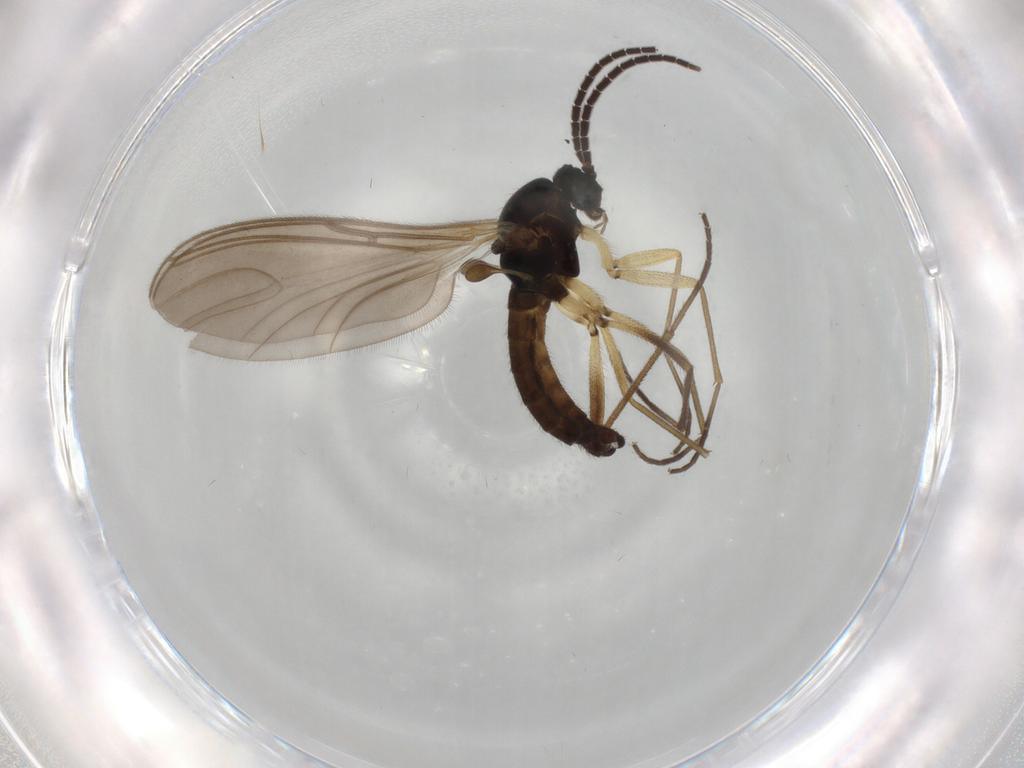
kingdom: Animalia
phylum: Arthropoda
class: Insecta
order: Diptera
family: Sciaridae
